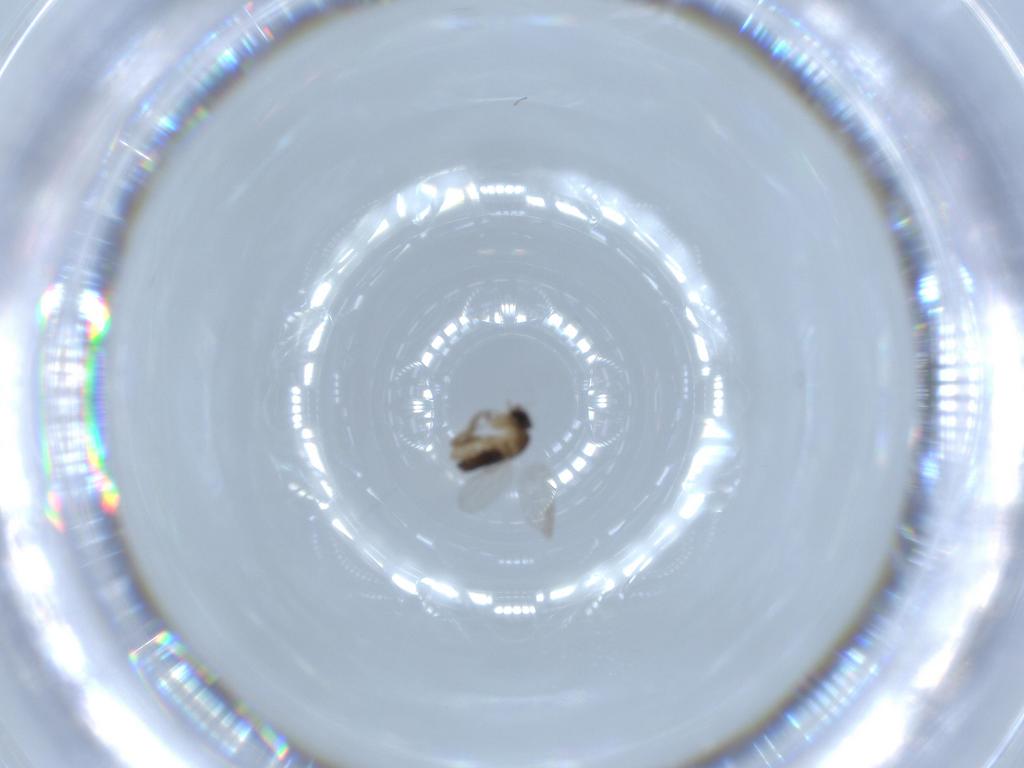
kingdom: Animalia
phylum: Arthropoda
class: Insecta
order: Diptera
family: Phoridae
